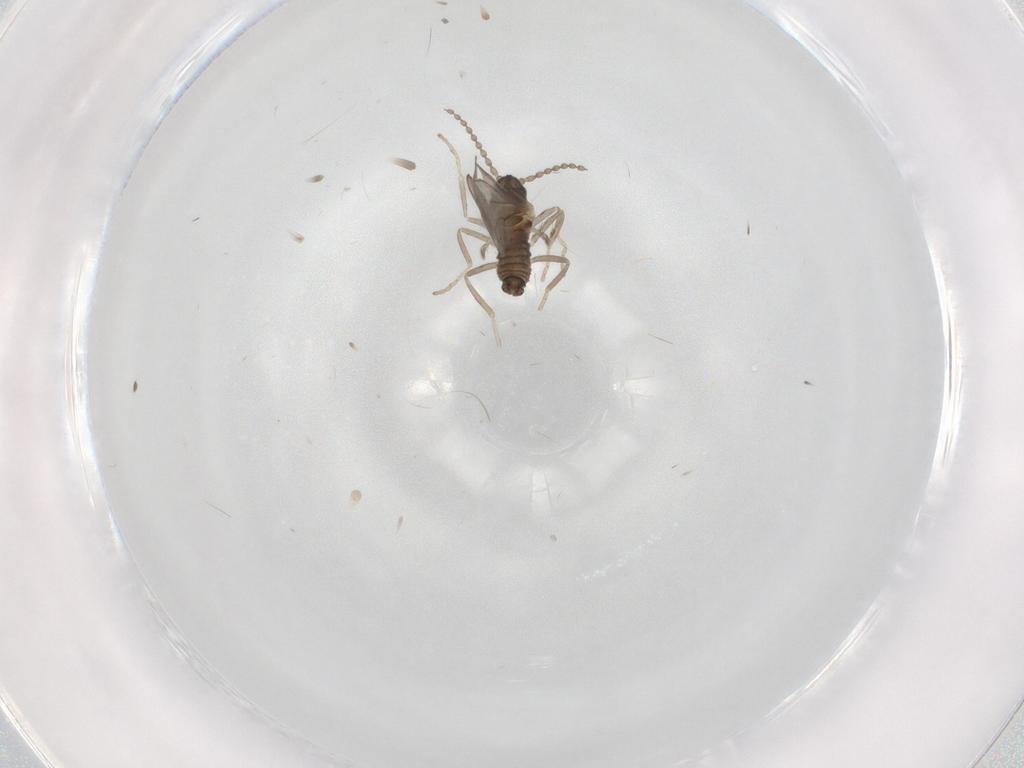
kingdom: Animalia
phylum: Arthropoda
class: Insecta
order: Diptera
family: Cecidomyiidae
